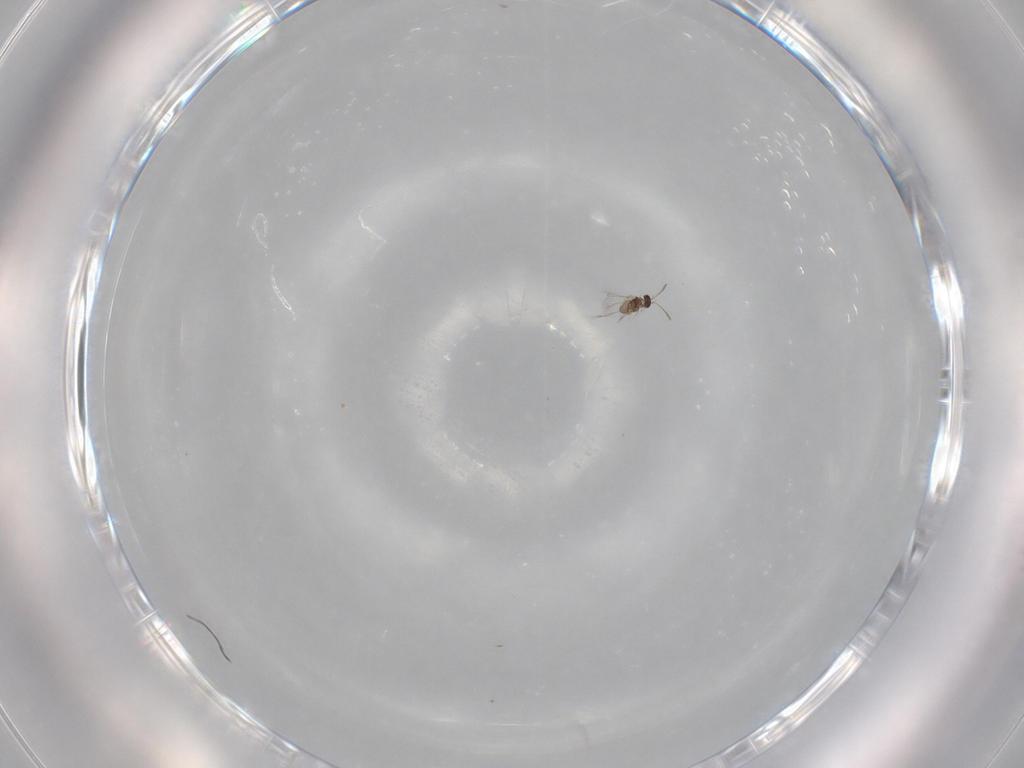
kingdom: Animalia
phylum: Arthropoda
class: Insecta
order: Hymenoptera
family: Mymaridae
